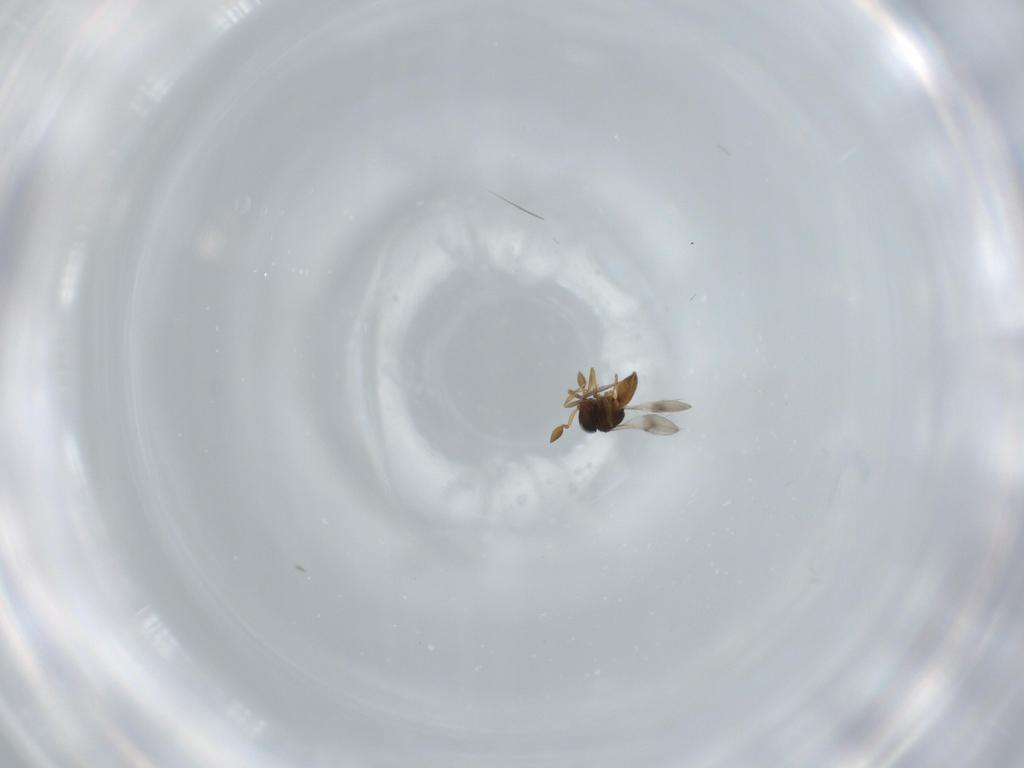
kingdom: Animalia
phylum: Arthropoda
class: Insecta
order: Hymenoptera
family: Scelionidae
